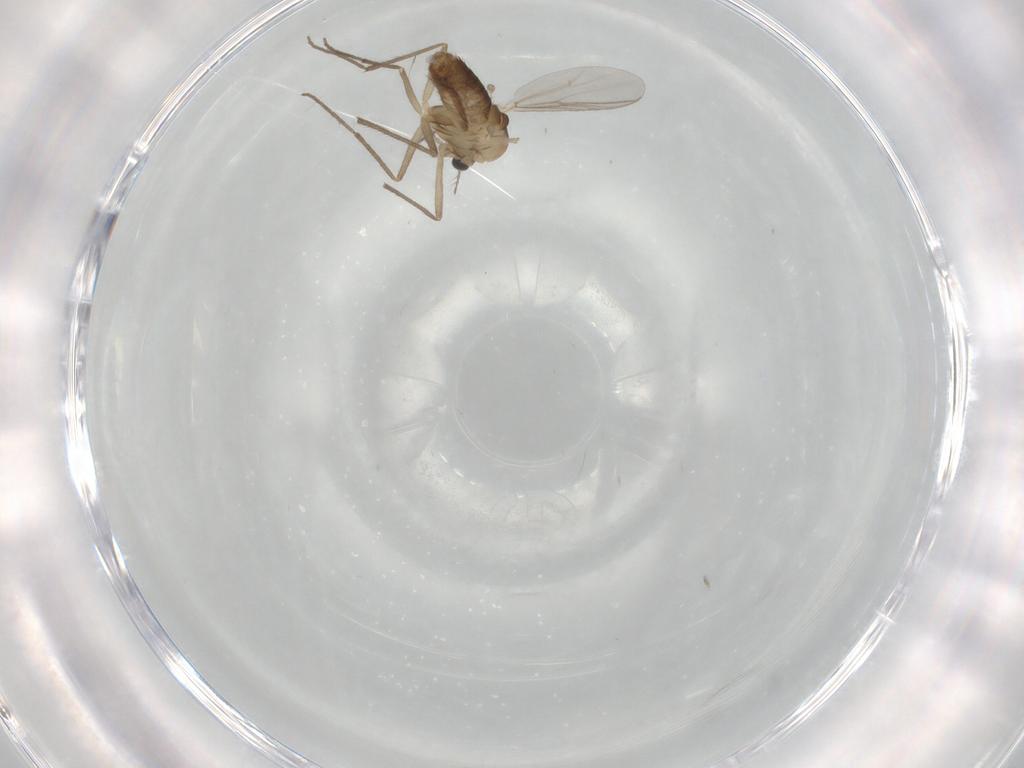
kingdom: Animalia
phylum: Arthropoda
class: Insecta
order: Diptera
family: Chironomidae
